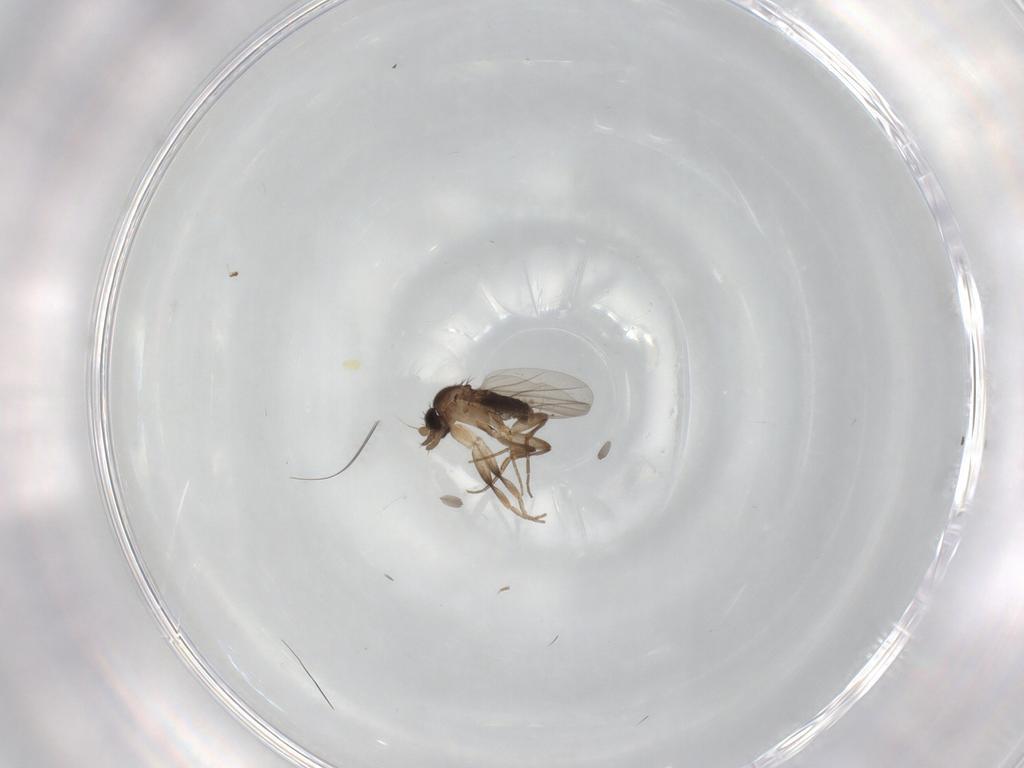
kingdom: Animalia
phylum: Arthropoda
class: Insecta
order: Diptera
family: Phoridae
